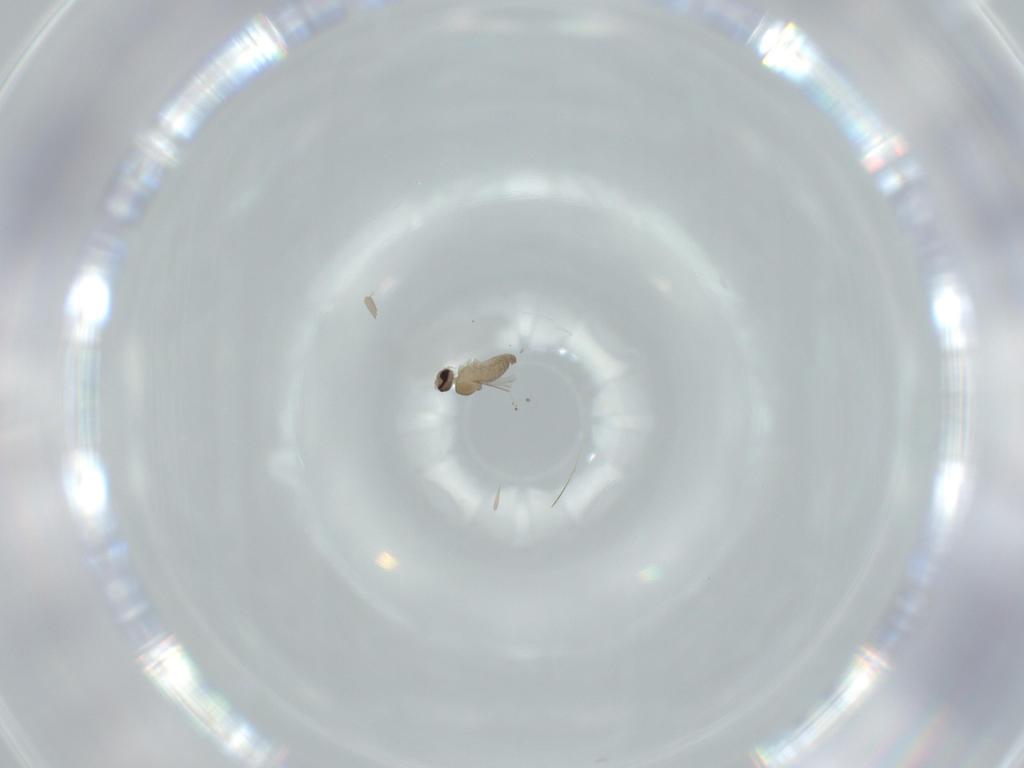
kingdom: Animalia
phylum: Arthropoda
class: Insecta
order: Diptera
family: Cecidomyiidae
